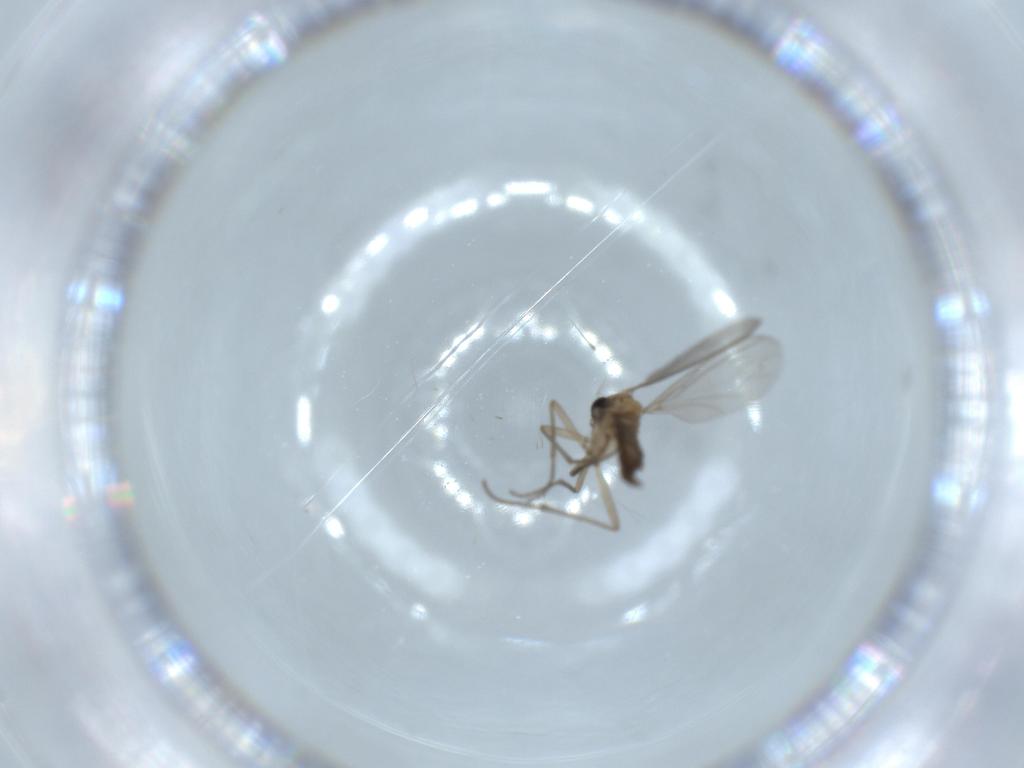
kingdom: Animalia
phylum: Arthropoda
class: Insecta
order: Diptera
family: Sciaridae
